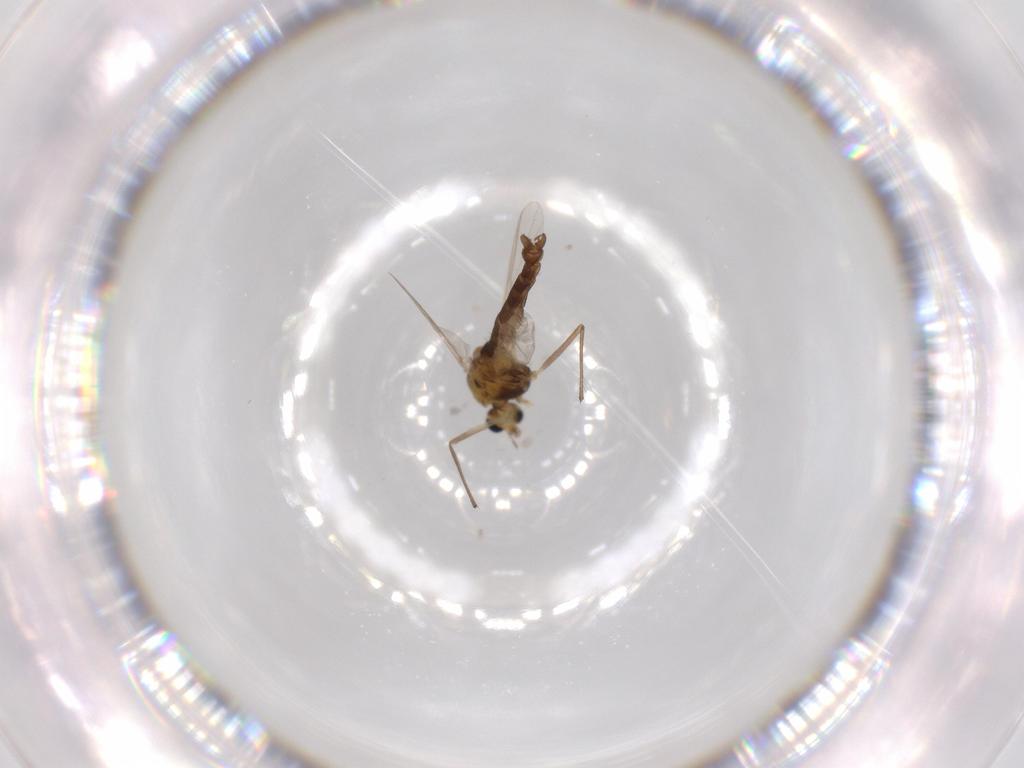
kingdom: Animalia
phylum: Arthropoda
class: Insecta
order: Diptera
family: Chironomidae
